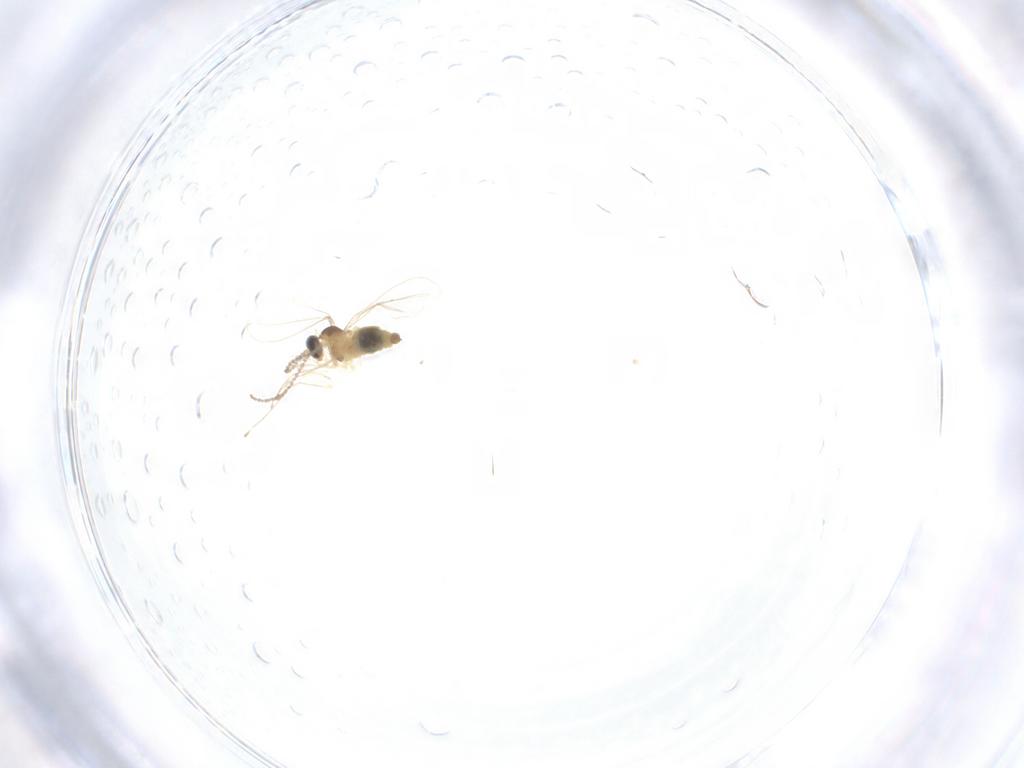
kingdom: Animalia
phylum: Arthropoda
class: Insecta
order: Diptera
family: Cecidomyiidae
